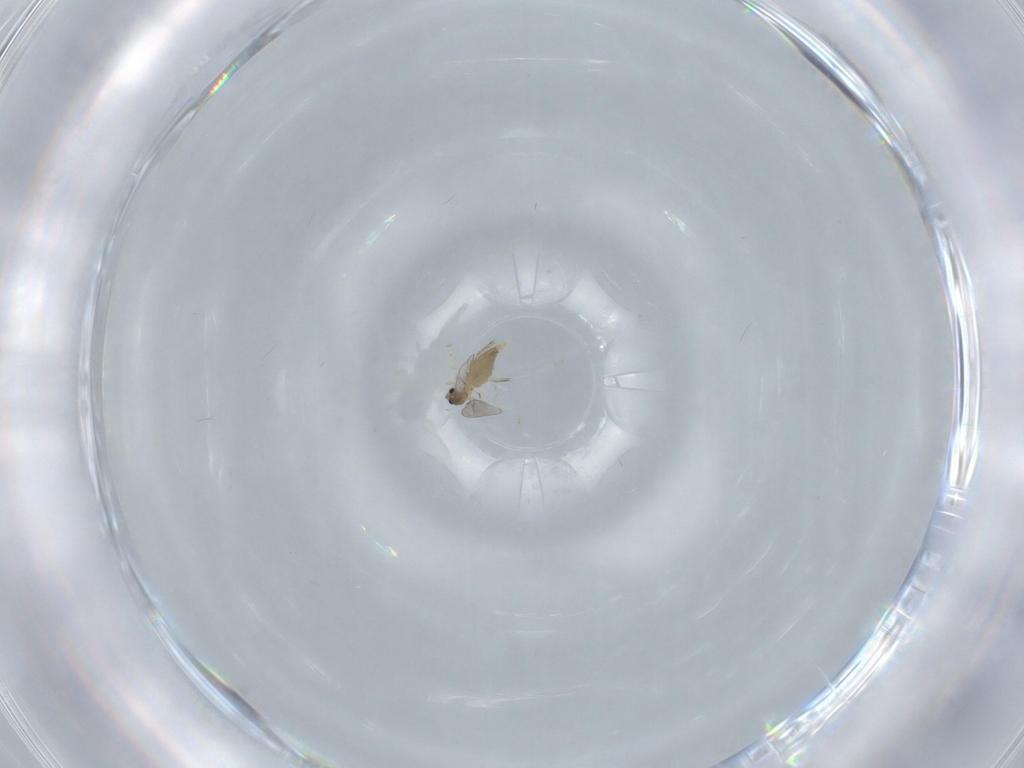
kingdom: Animalia
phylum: Arthropoda
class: Insecta
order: Diptera
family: Cecidomyiidae
